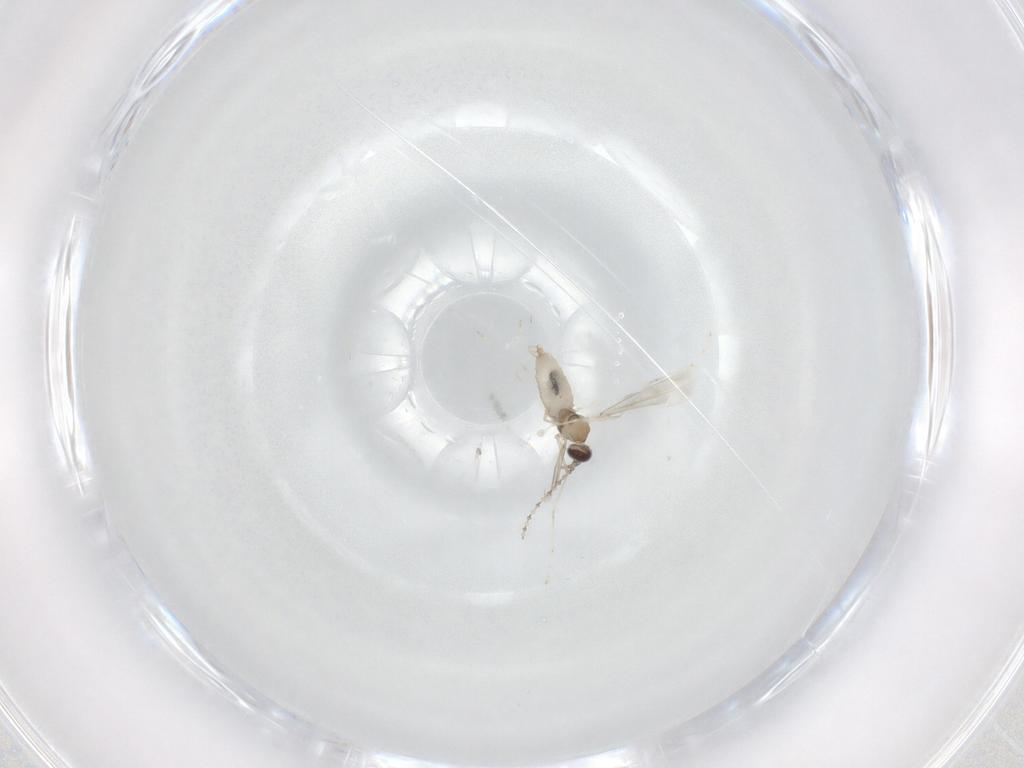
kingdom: Animalia
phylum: Arthropoda
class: Insecta
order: Diptera
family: Cecidomyiidae
